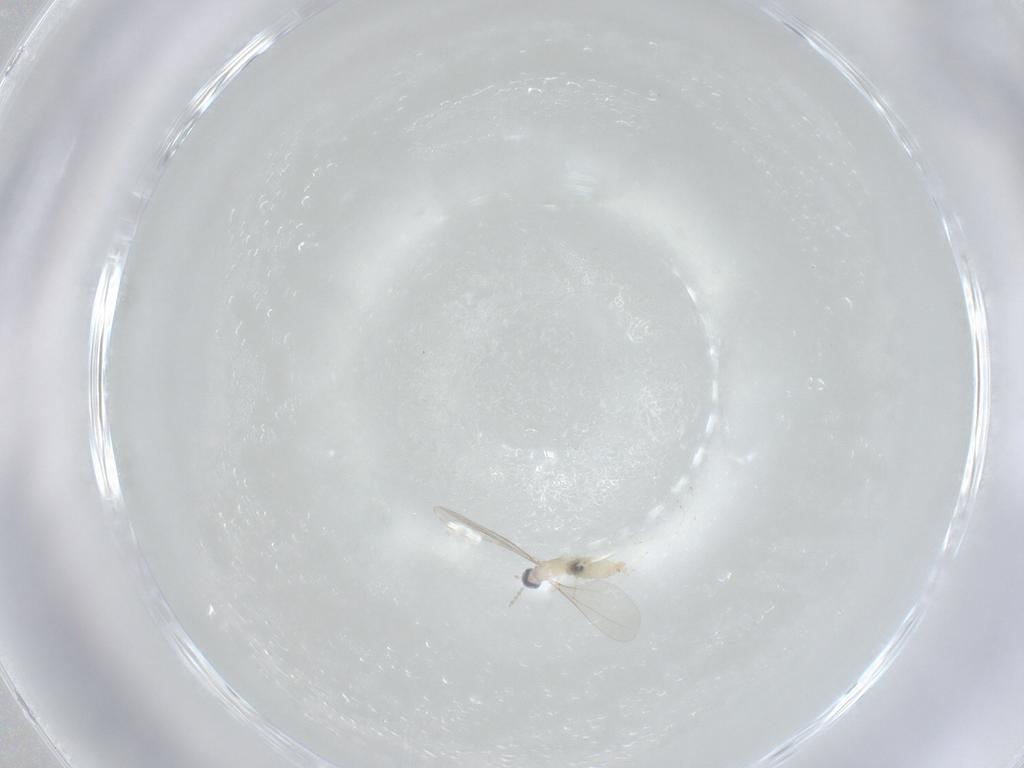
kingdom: Animalia
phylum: Arthropoda
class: Insecta
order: Diptera
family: Cecidomyiidae
